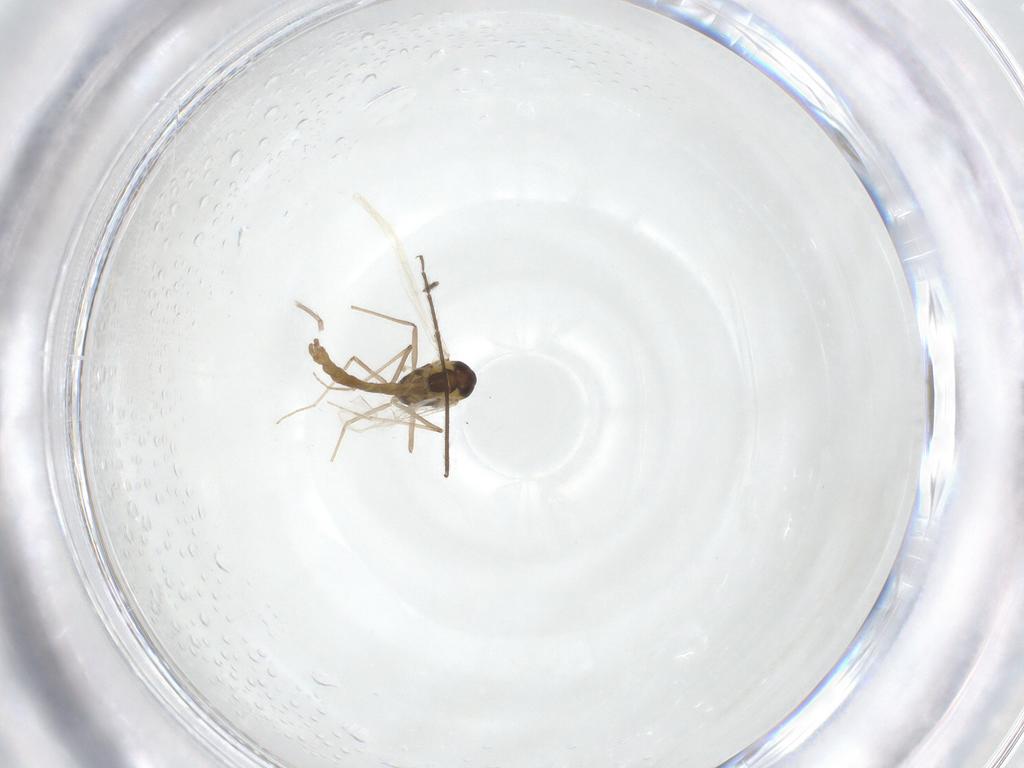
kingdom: Animalia
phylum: Arthropoda
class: Insecta
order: Diptera
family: Chironomidae
